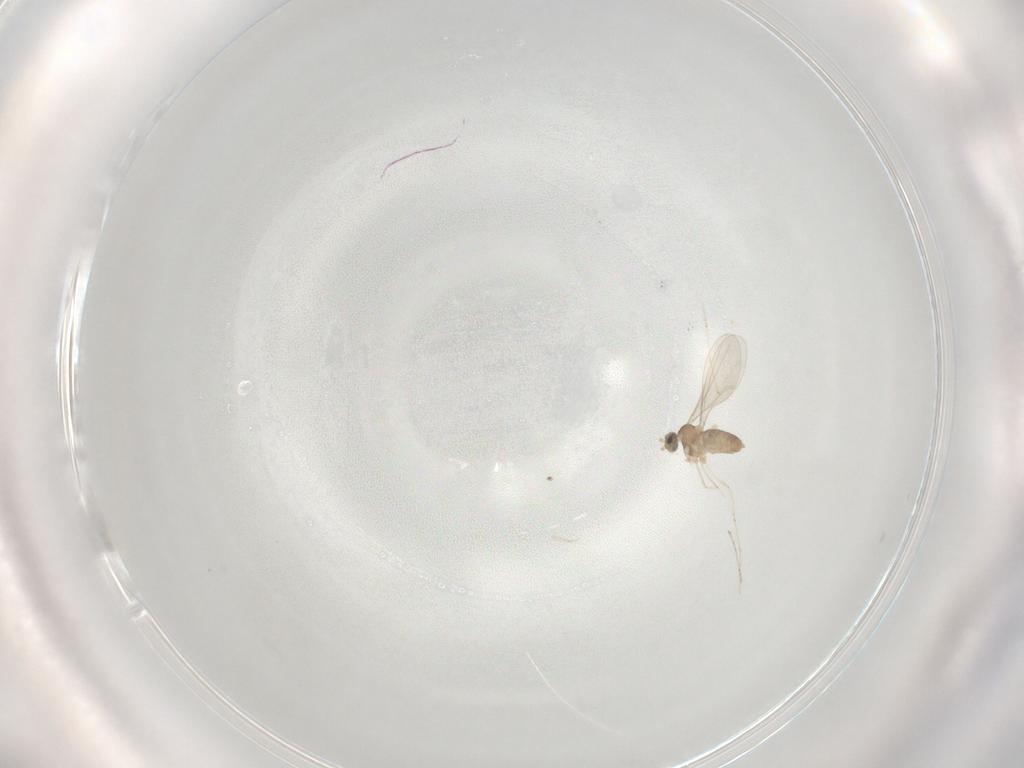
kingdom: Animalia
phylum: Arthropoda
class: Insecta
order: Diptera
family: Cecidomyiidae
